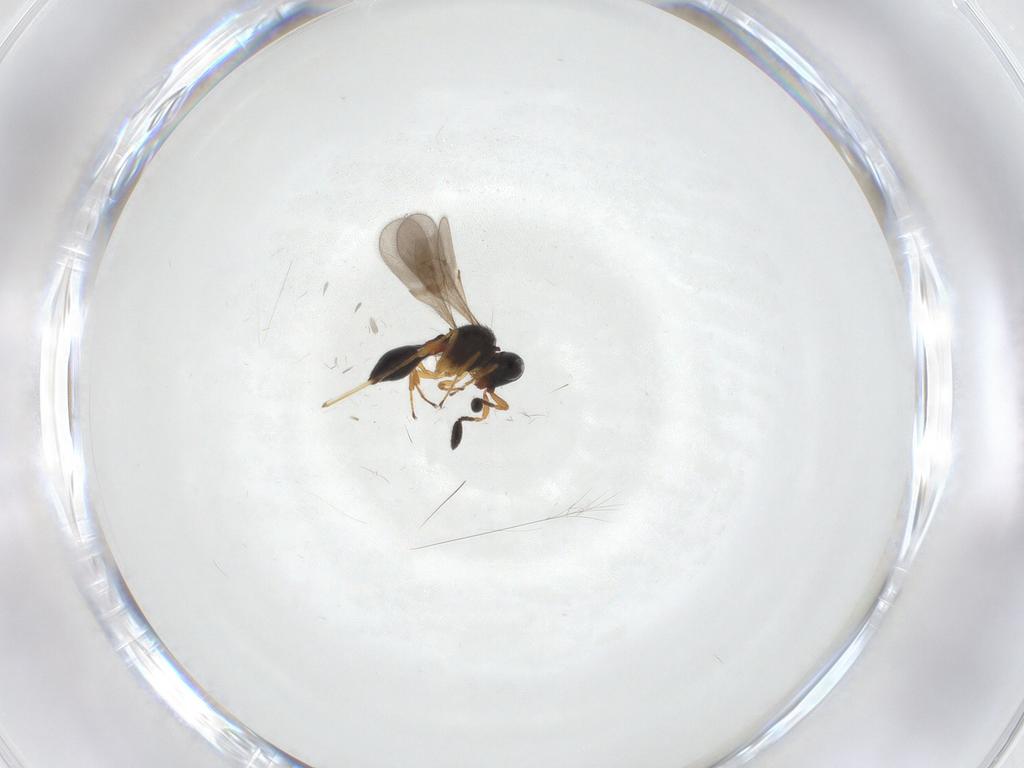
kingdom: Animalia
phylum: Arthropoda
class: Insecta
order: Hymenoptera
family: Scelionidae
